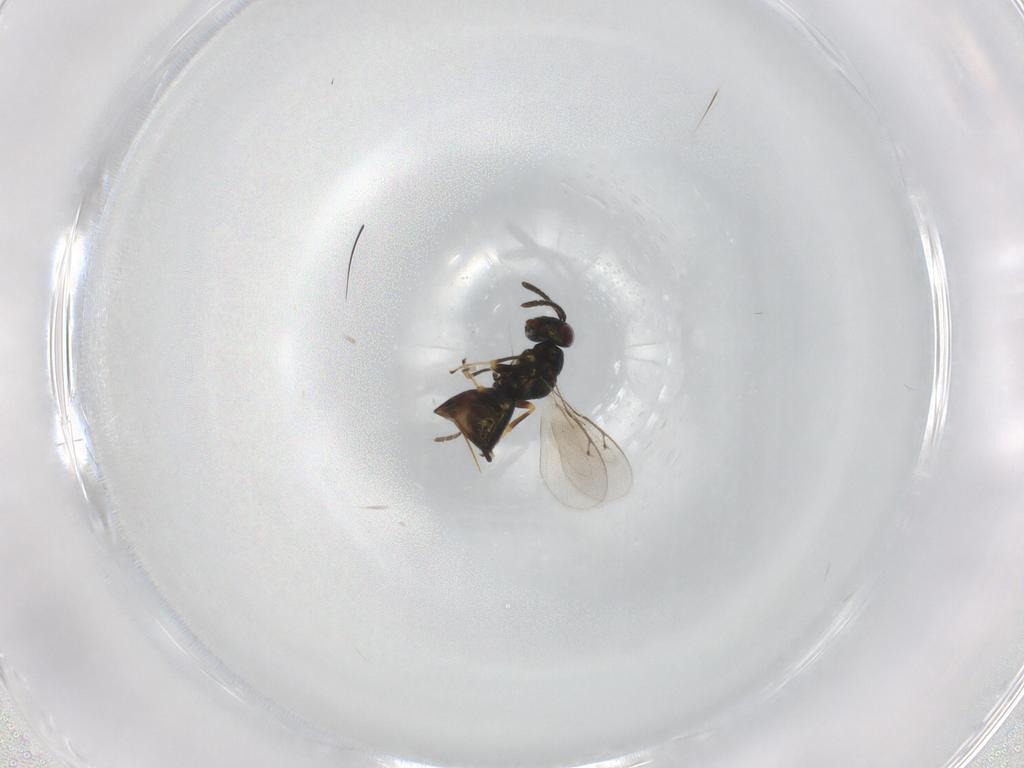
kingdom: Animalia
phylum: Arthropoda
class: Insecta
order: Hymenoptera
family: Pteromalidae
